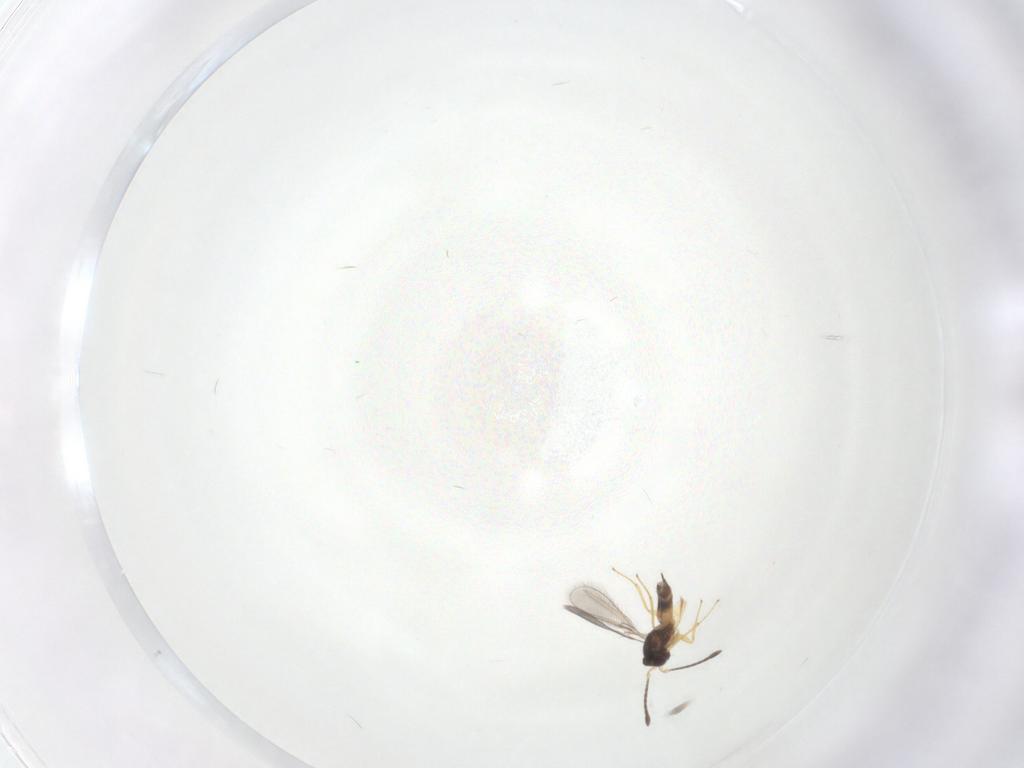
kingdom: Animalia
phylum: Arthropoda
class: Insecta
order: Hymenoptera
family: Mymaridae
